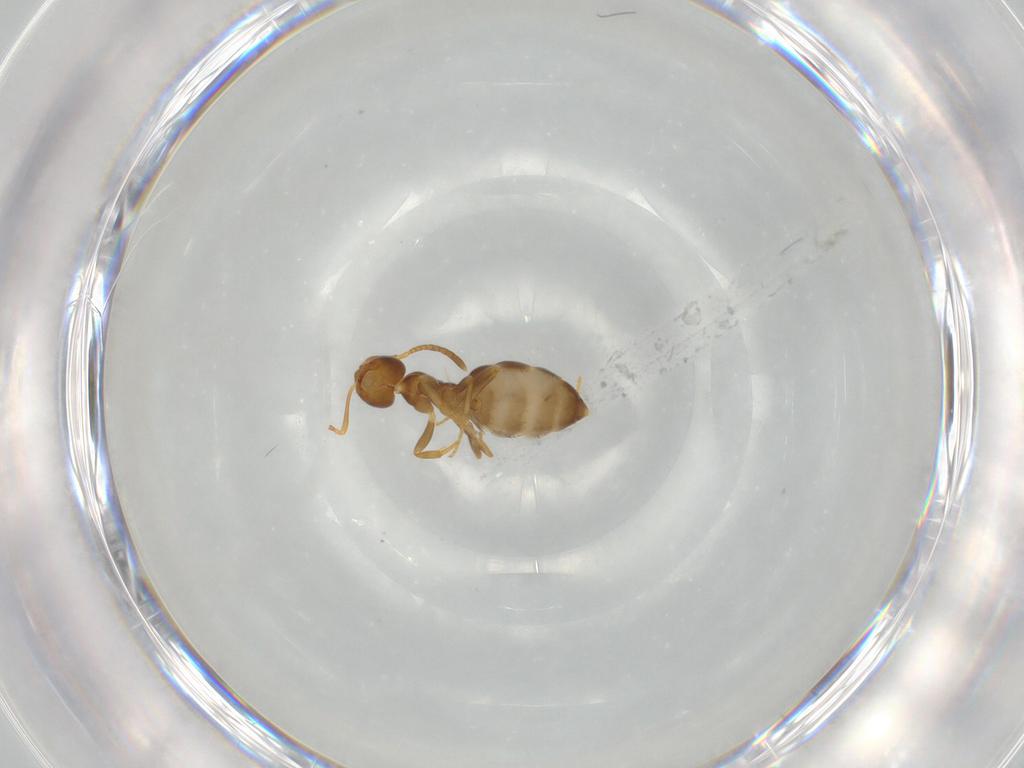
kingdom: Animalia
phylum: Arthropoda
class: Insecta
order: Hymenoptera
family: Formicidae
